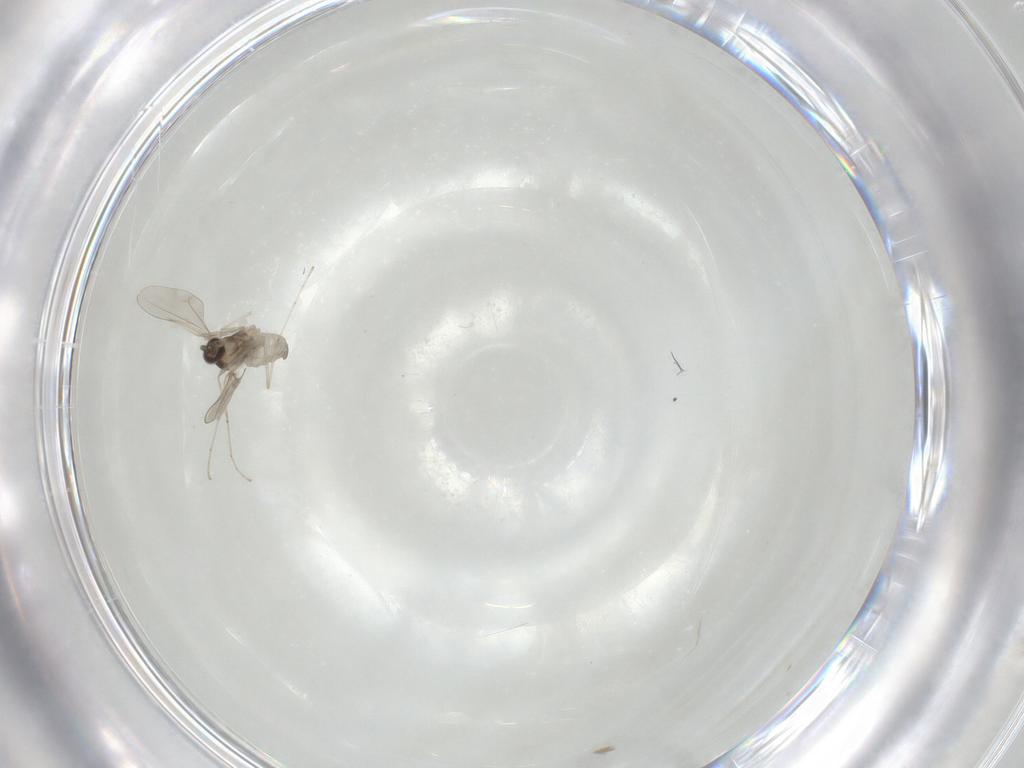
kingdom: Animalia
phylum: Arthropoda
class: Insecta
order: Diptera
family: Cecidomyiidae
